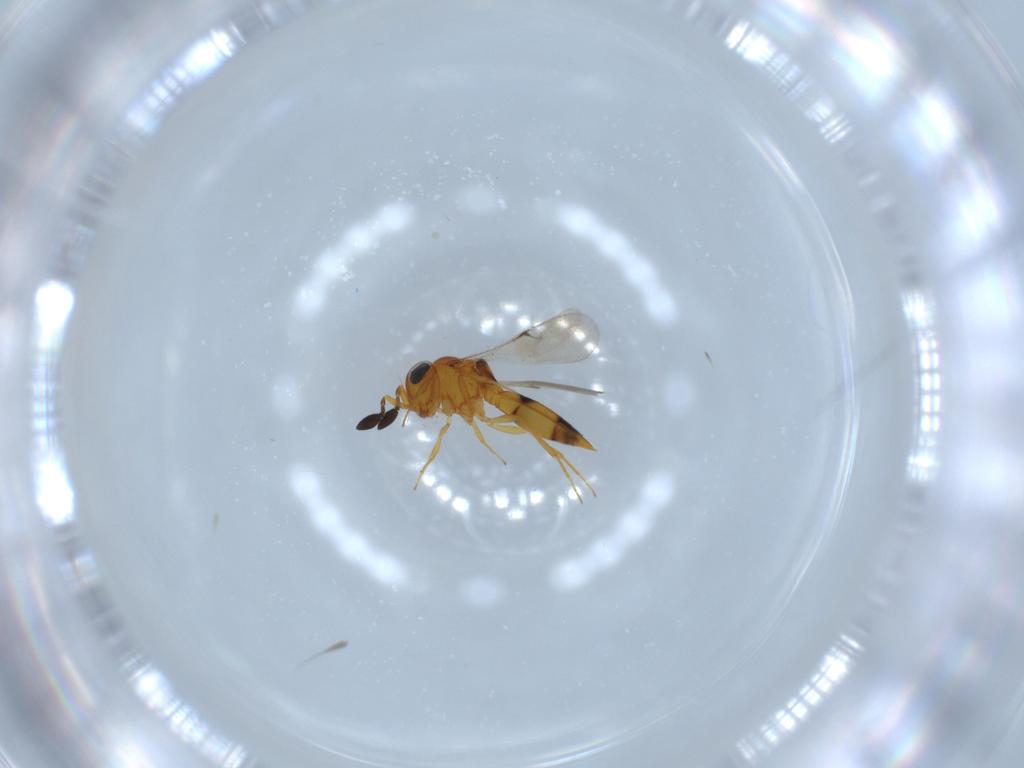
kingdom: Animalia
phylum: Arthropoda
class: Insecta
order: Hymenoptera
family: Scelionidae
